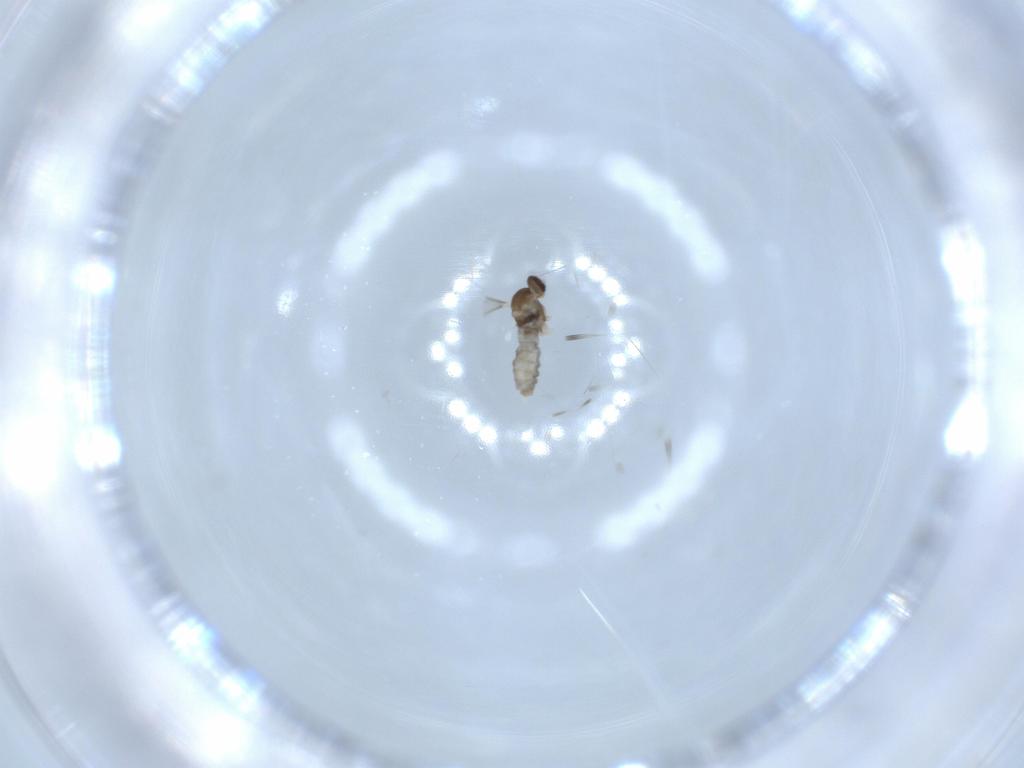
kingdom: Animalia
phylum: Arthropoda
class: Insecta
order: Diptera
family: Cecidomyiidae
